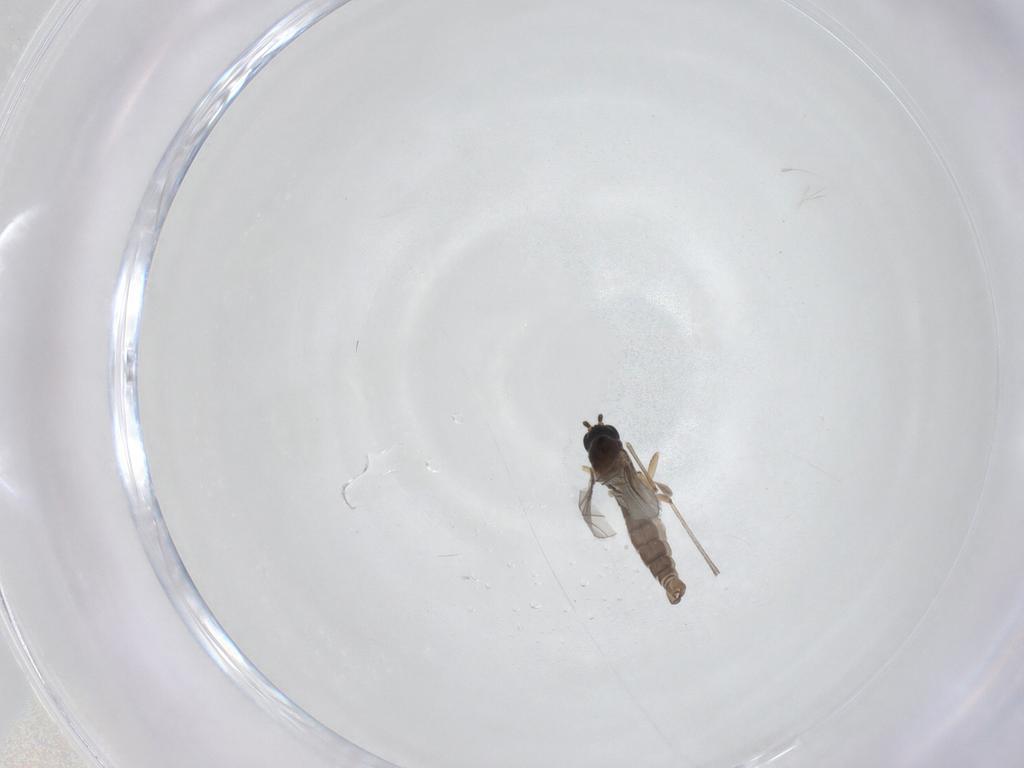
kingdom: Animalia
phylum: Arthropoda
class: Insecta
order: Diptera
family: Sciaridae
